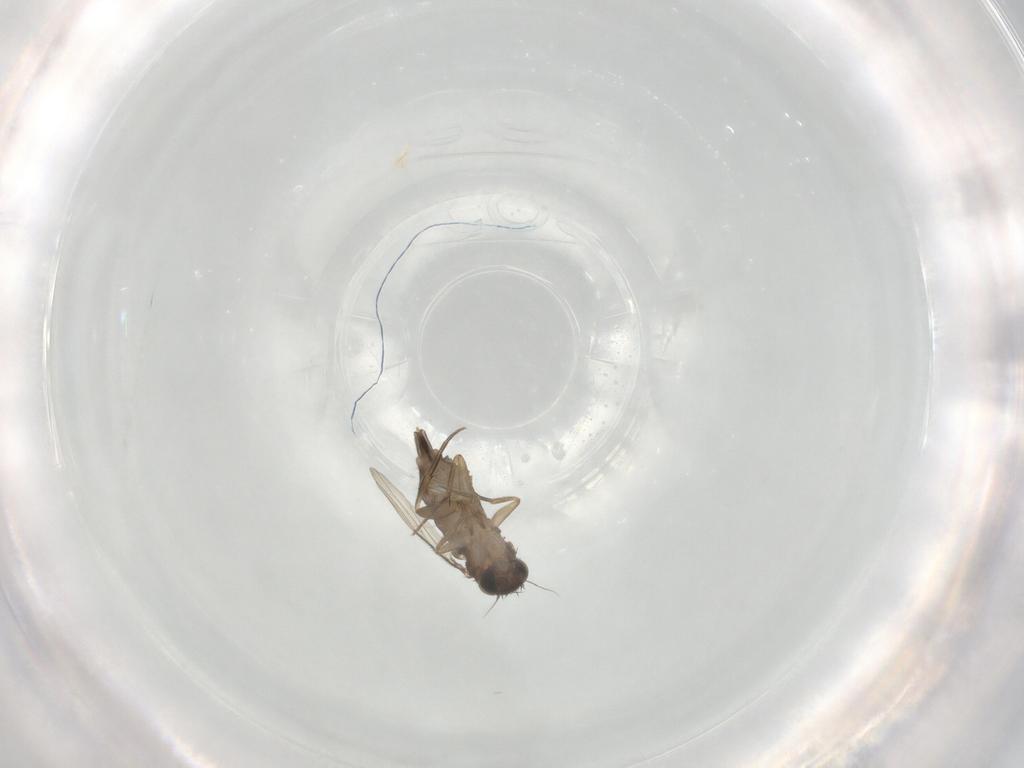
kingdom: Animalia
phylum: Arthropoda
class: Insecta
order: Diptera
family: Phoridae
